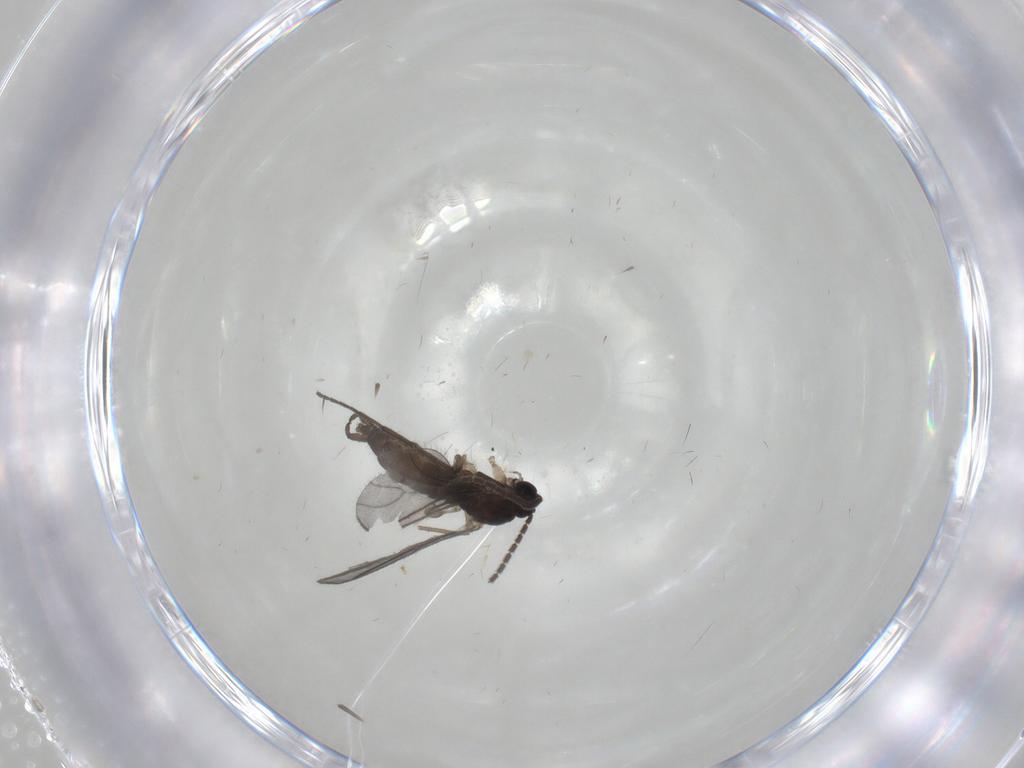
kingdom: Animalia
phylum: Arthropoda
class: Insecta
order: Diptera
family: Sciaridae
